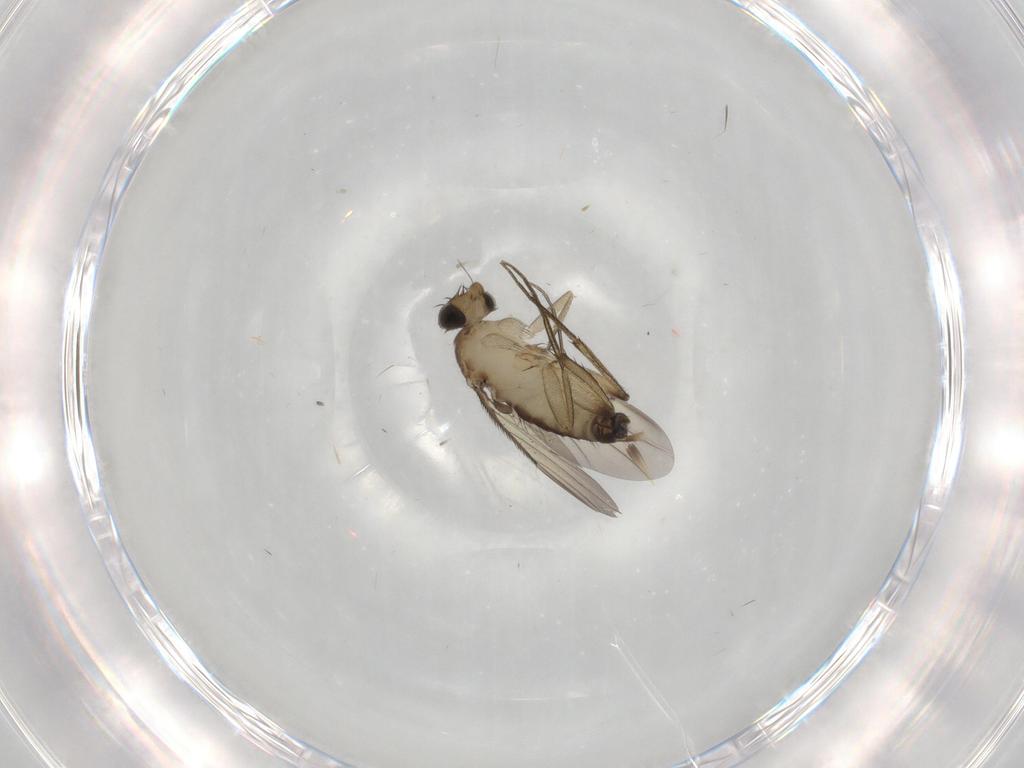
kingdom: Animalia
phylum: Arthropoda
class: Insecta
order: Diptera
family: Phoridae
